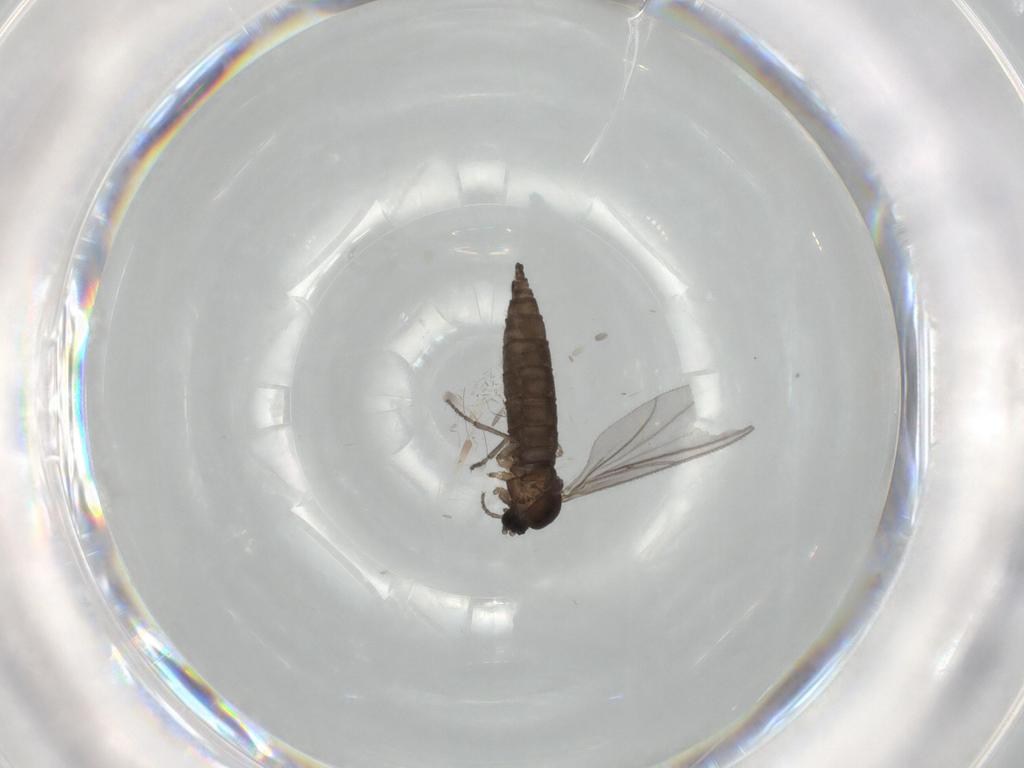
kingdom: Animalia
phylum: Arthropoda
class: Insecta
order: Diptera
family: Sciaridae
